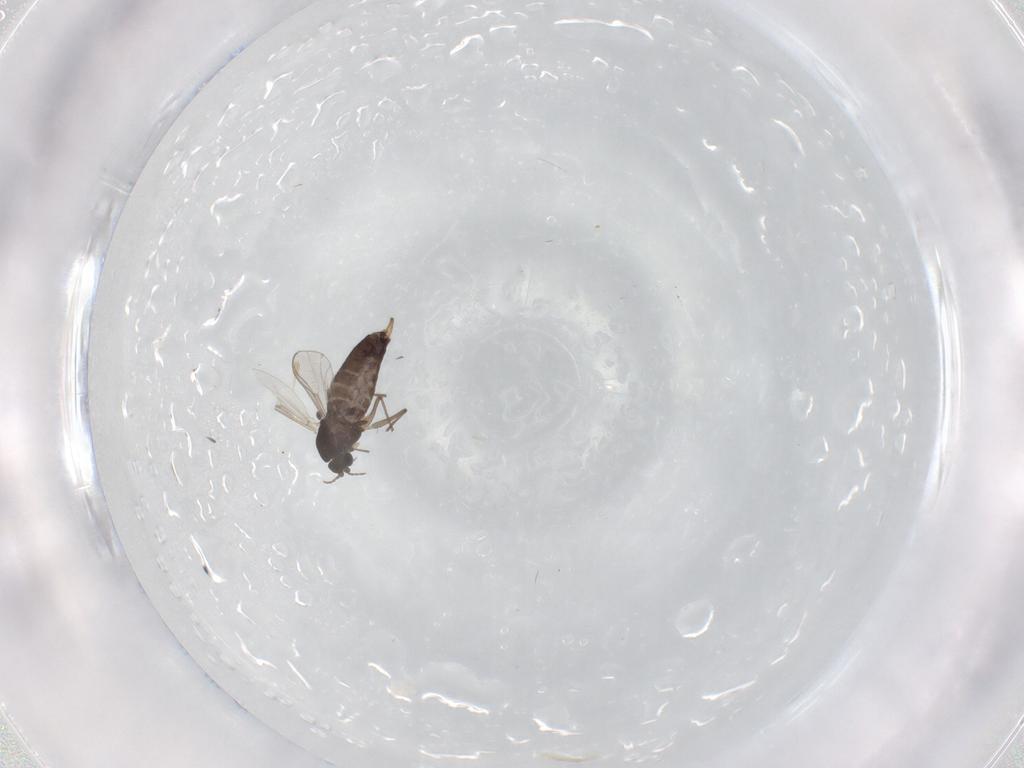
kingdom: Animalia
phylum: Arthropoda
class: Insecta
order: Diptera
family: Chironomidae
